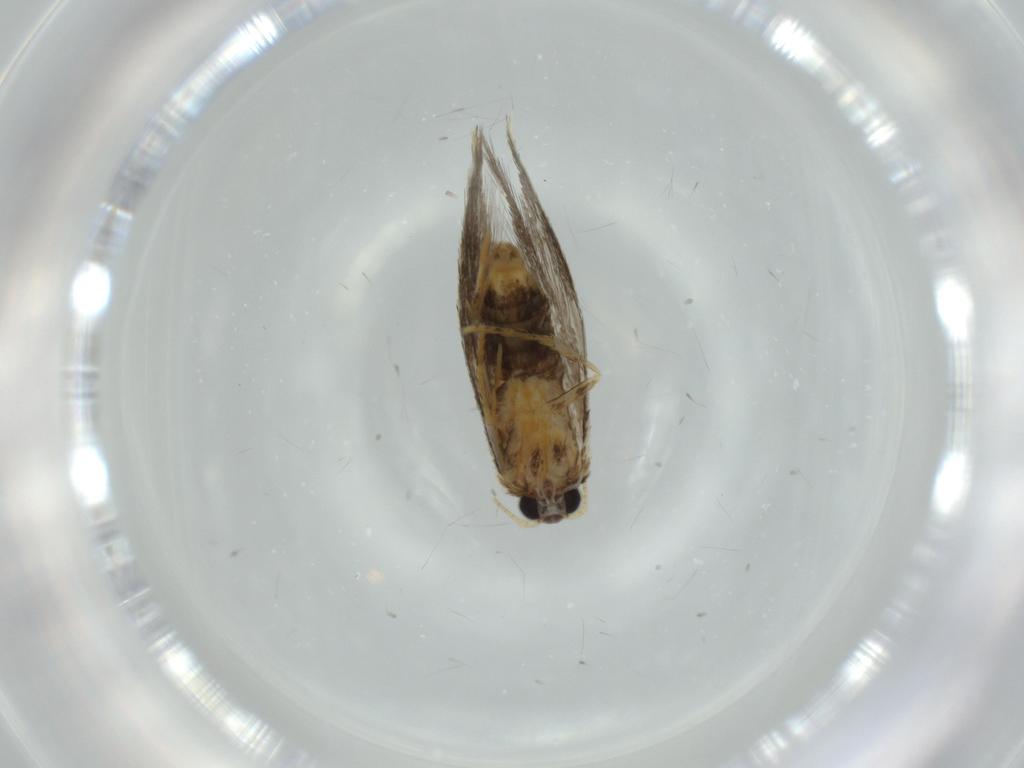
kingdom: Animalia
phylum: Arthropoda
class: Insecta
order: Lepidoptera
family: Tineidae
